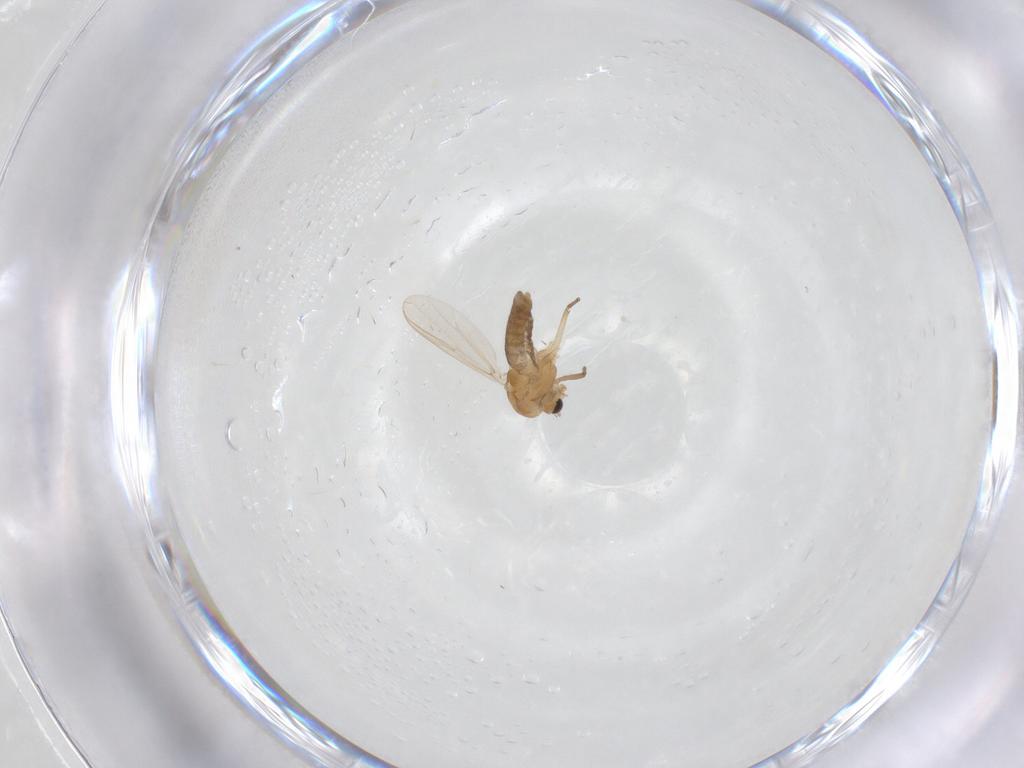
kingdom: Animalia
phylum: Arthropoda
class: Insecta
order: Diptera
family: Chironomidae
